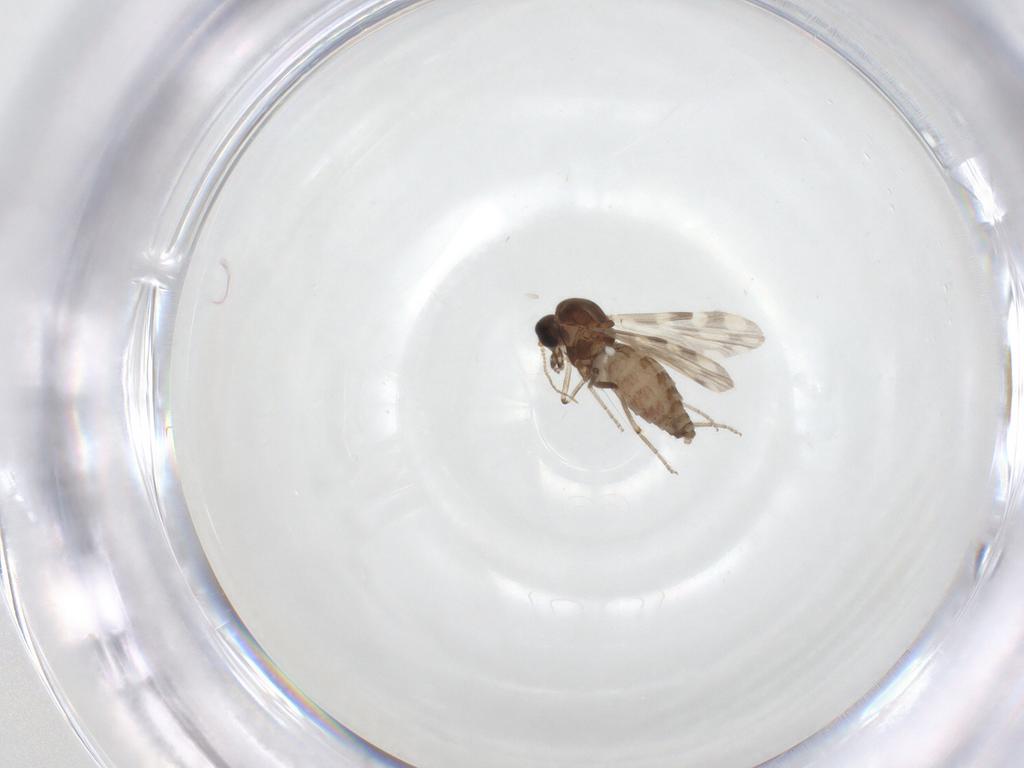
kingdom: Animalia
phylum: Arthropoda
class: Insecta
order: Diptera
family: Ceratopogonidae
